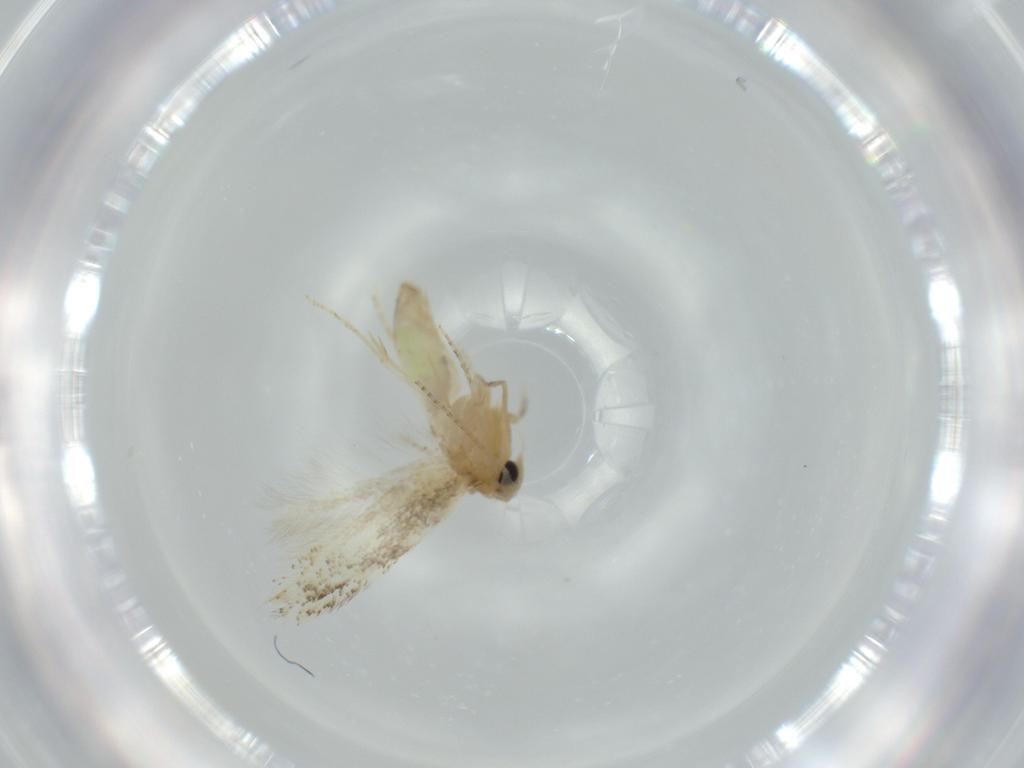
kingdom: Animalia
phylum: Arthropoda
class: Insecta
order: Lepidoptera
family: Bucculatricidae
